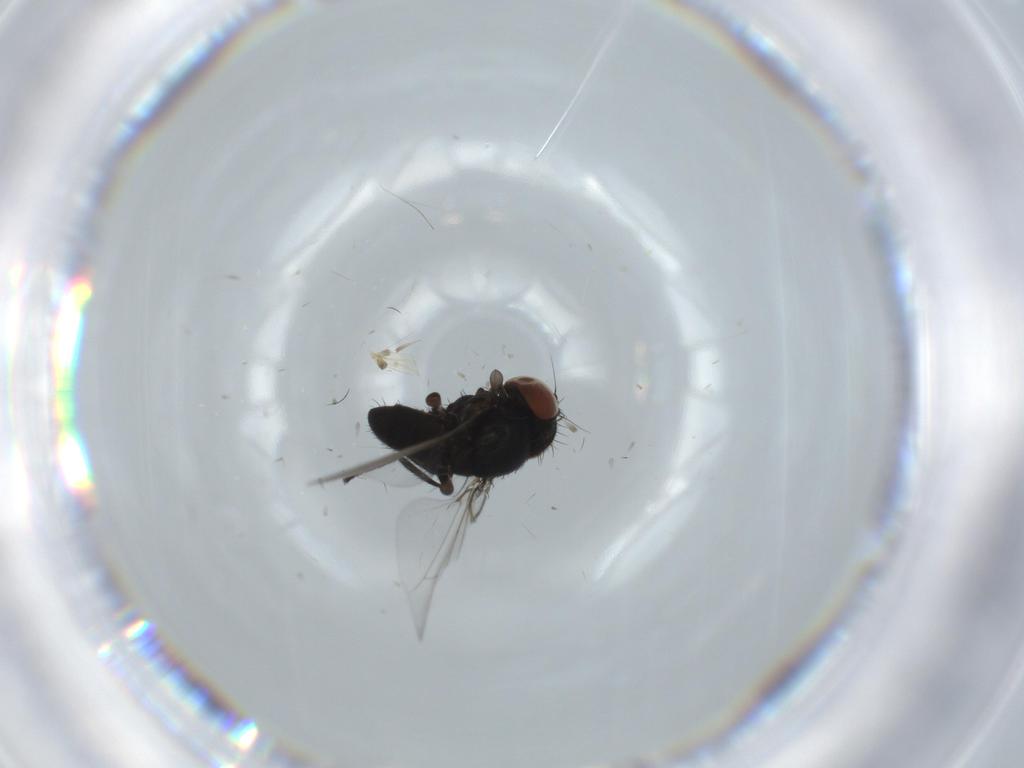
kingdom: Animalia
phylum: Arthropoda
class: Insecta
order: Diptera
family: Milichiidae
